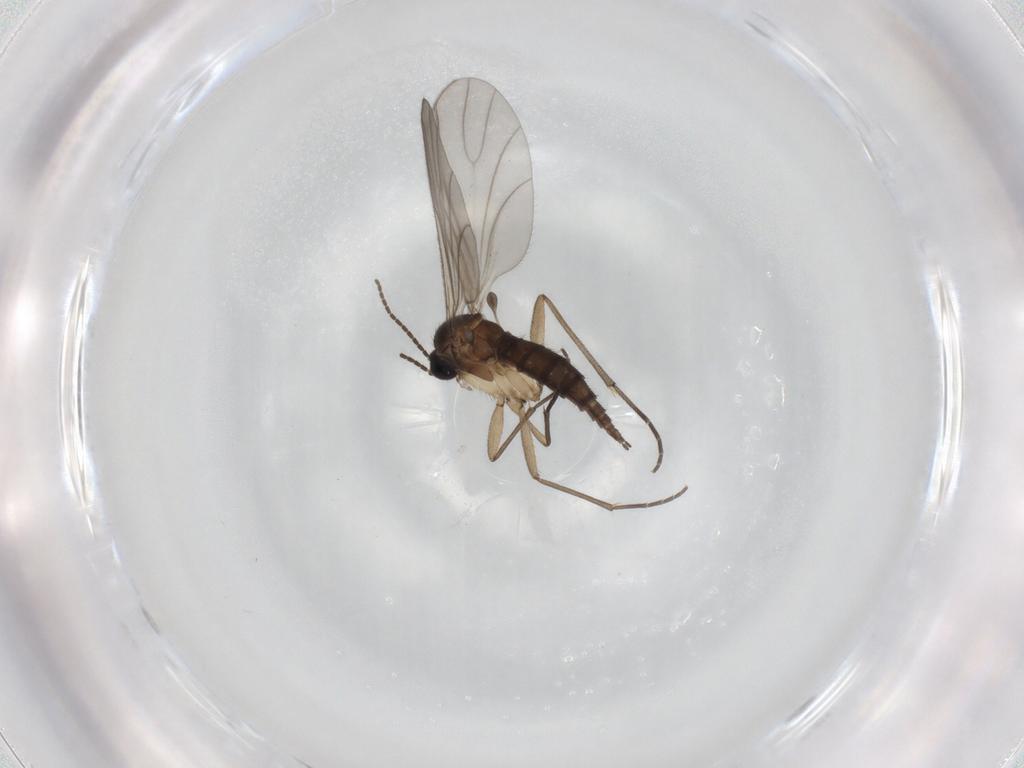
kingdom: Animalia
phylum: Arthropoda
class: Insecta
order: Diptera
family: Sciaridae
